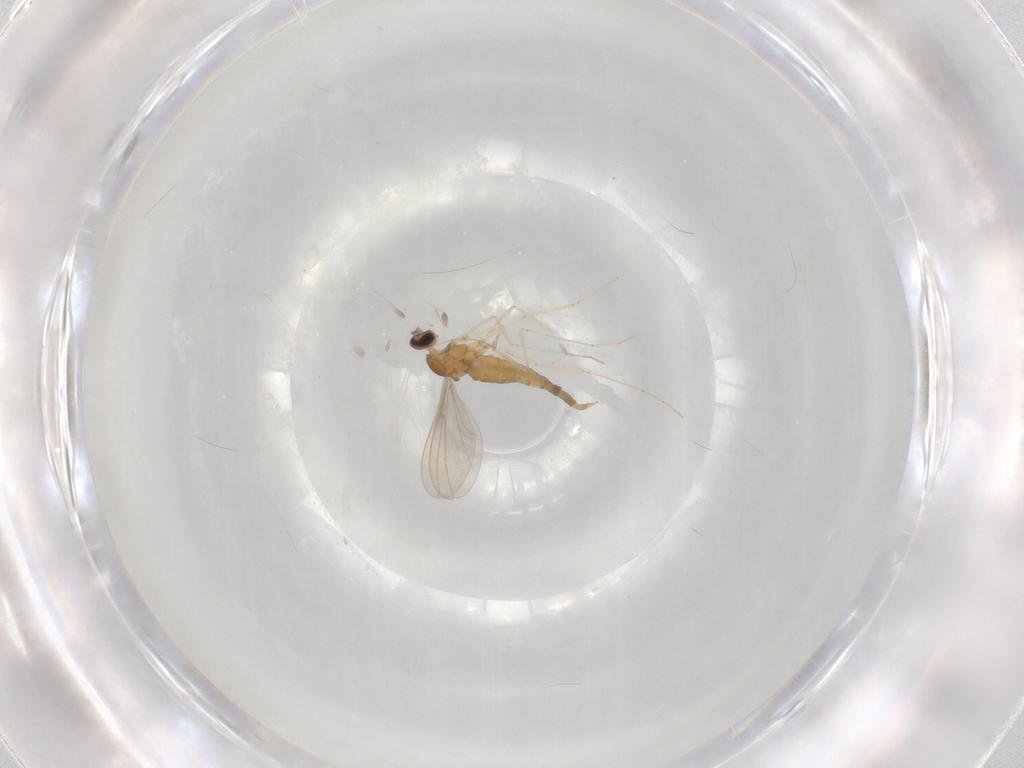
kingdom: Animalia
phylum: Arthropoda
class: Insecta
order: Diptera
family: Cecidomyiidae
